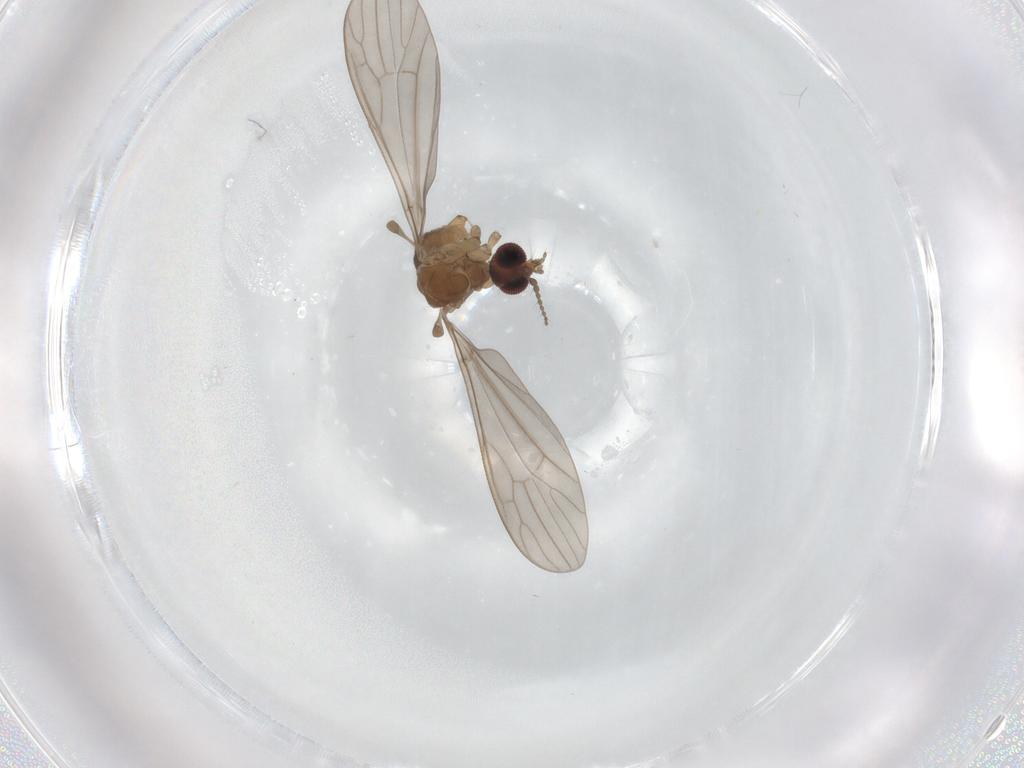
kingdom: Animalia
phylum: Arthropoda
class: Insecta
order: Diptera
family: Limoniidae
